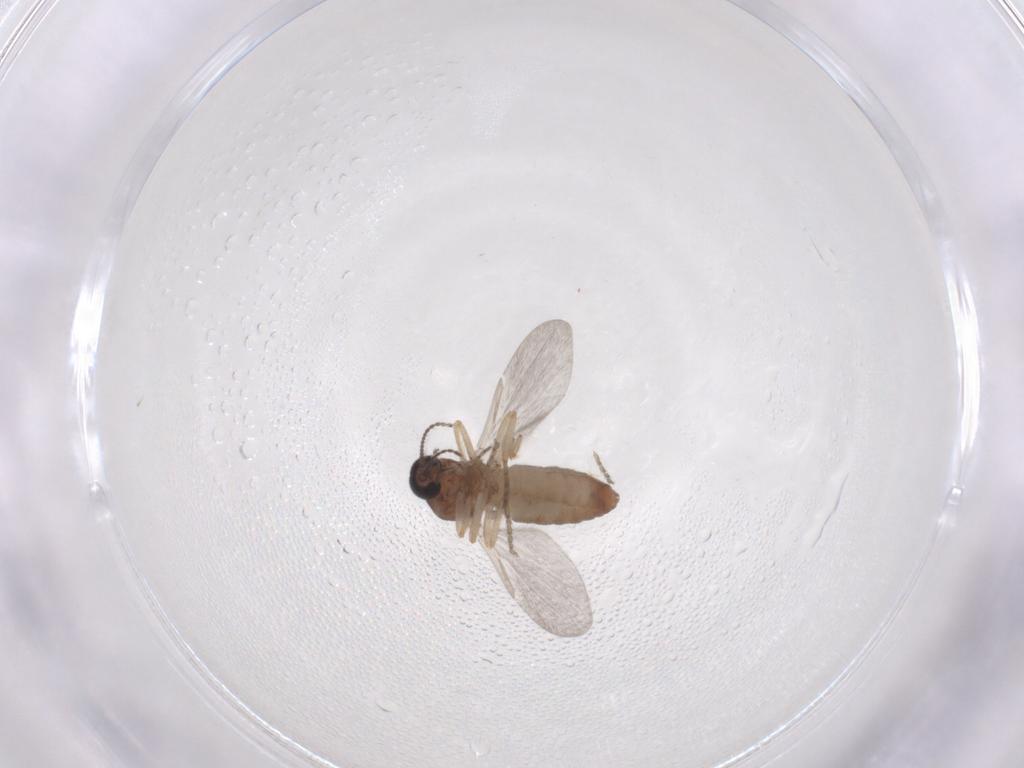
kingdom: Animalia
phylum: Arthropoda
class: Insecta
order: Diptera
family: Ceratopogonidae
